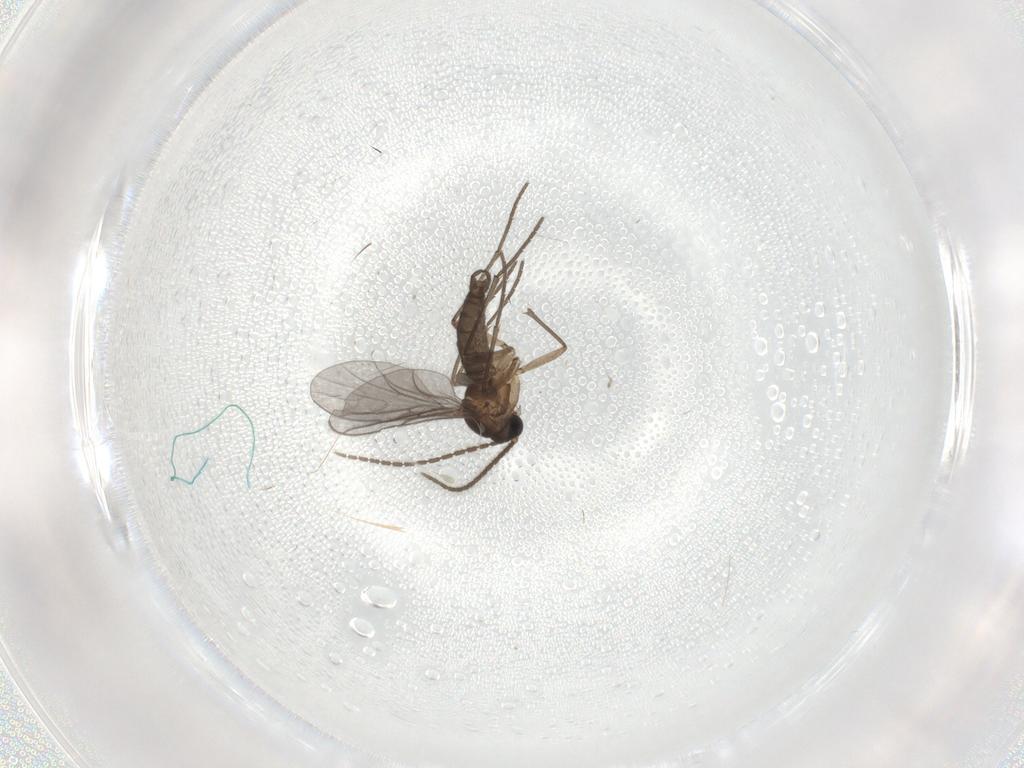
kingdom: Animalia
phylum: Arthropoda
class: Insecta
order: Diptera
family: Sciaridae
